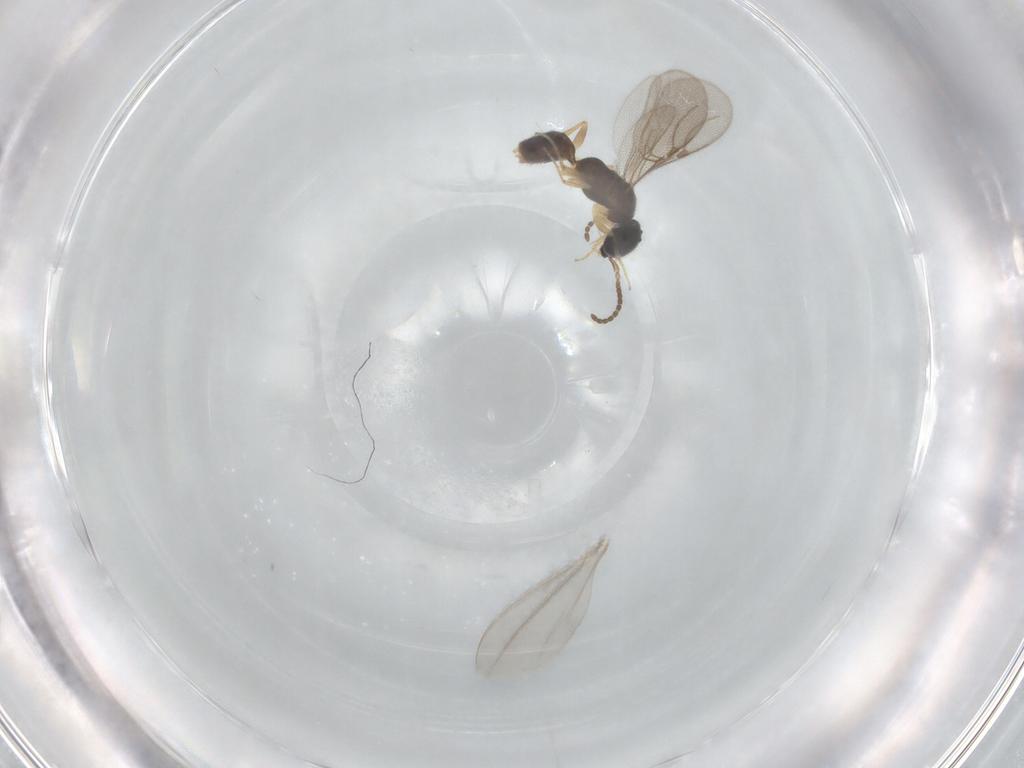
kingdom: Animalia
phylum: Arthropoda
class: Insecta
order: Hymenoptera
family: Bethylidae
